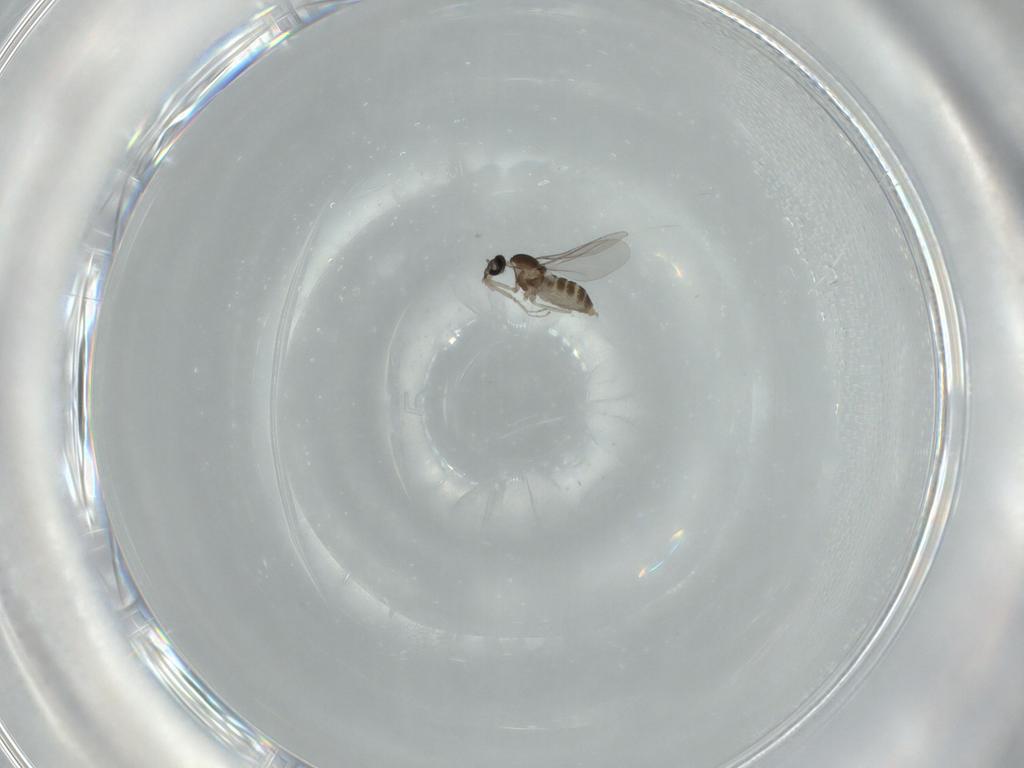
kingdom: Animalia
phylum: Arthropoda
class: Insecta
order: Diptera
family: Cecidomyiidae
